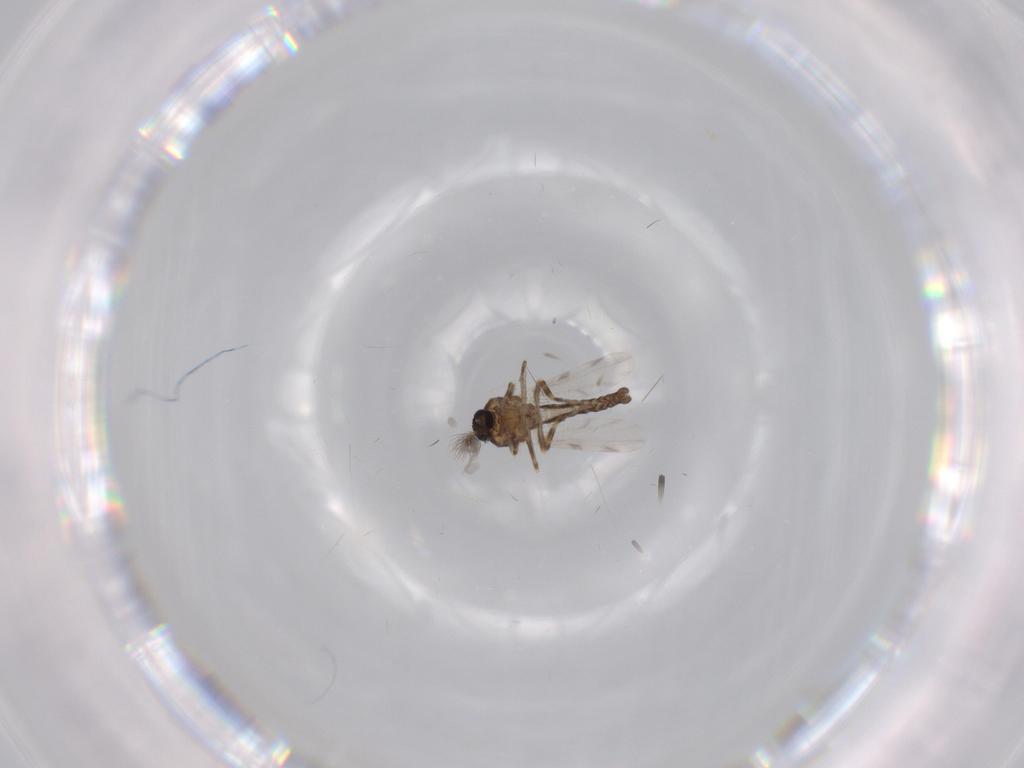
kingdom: Animalia
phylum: Arthropoda
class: Insecta
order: Diptera
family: Ceratopogonidae
